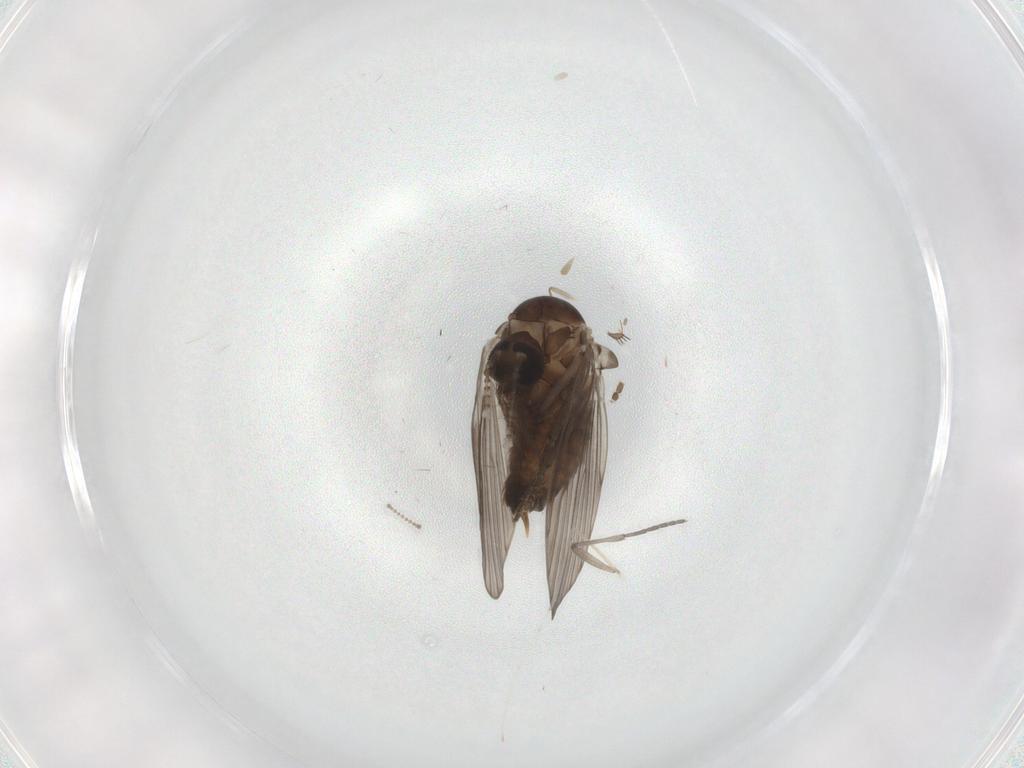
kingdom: Animalia
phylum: Arthropoda
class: Insecta
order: Diptera
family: Psychodidae
